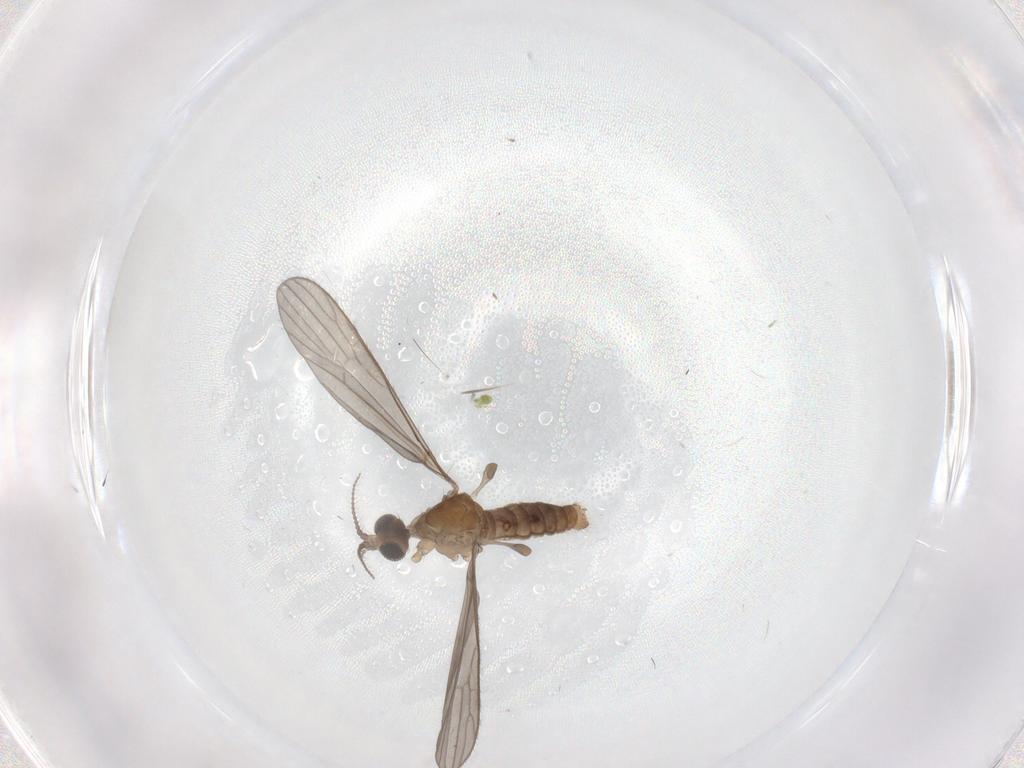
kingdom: Animalia
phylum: Arthropoda
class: Insecta
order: Diptera
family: Limoniidae
